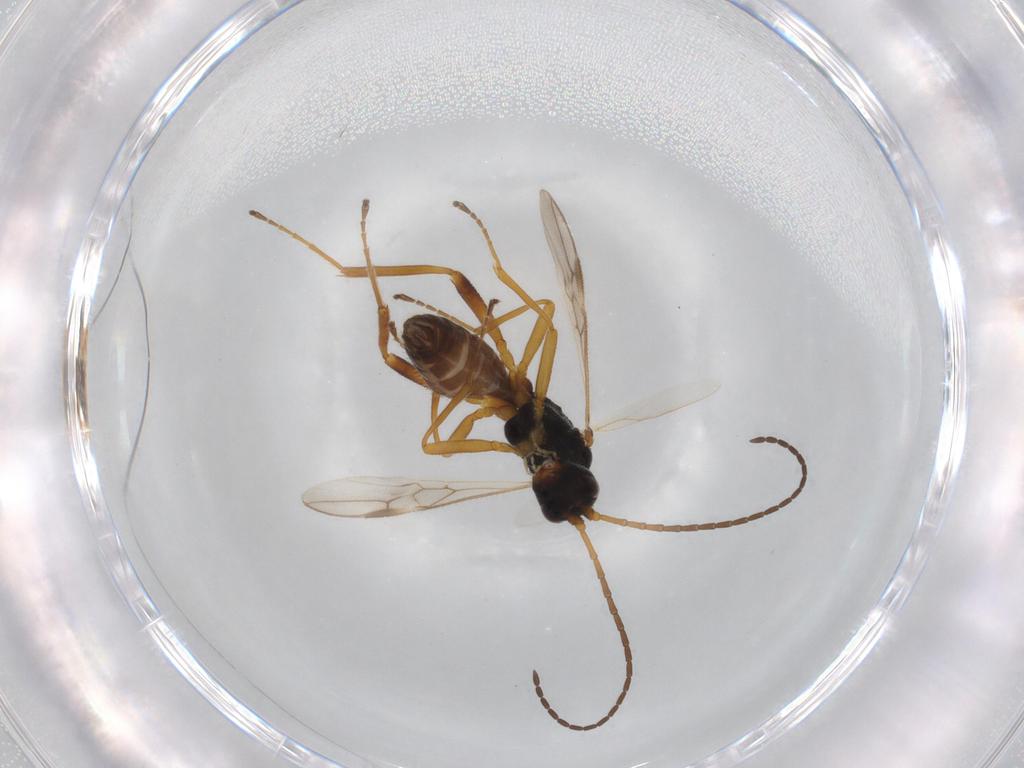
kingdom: Animalia
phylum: Arthropoda
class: Insecta
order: Hymenoptera
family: Braconidae
